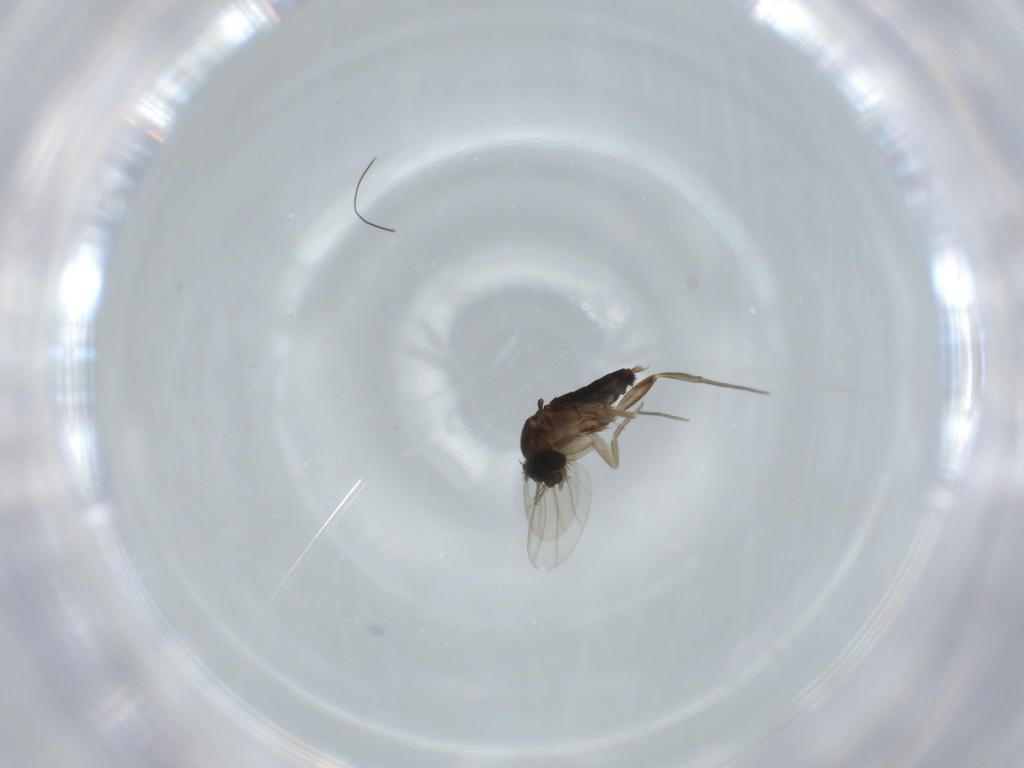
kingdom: Animalia
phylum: Arthropoda
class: Insecta
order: Diptera
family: Phoridae
